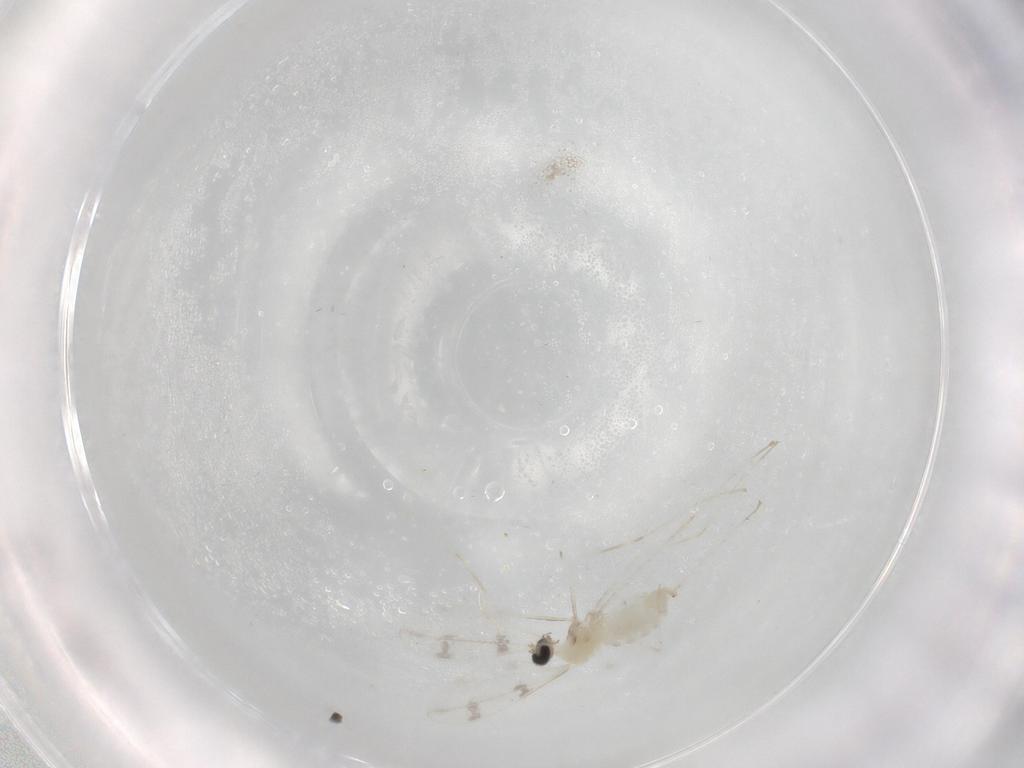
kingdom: Animalia
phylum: Arthropoda
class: Insecta
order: Diptera
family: Cecidomyiidae
